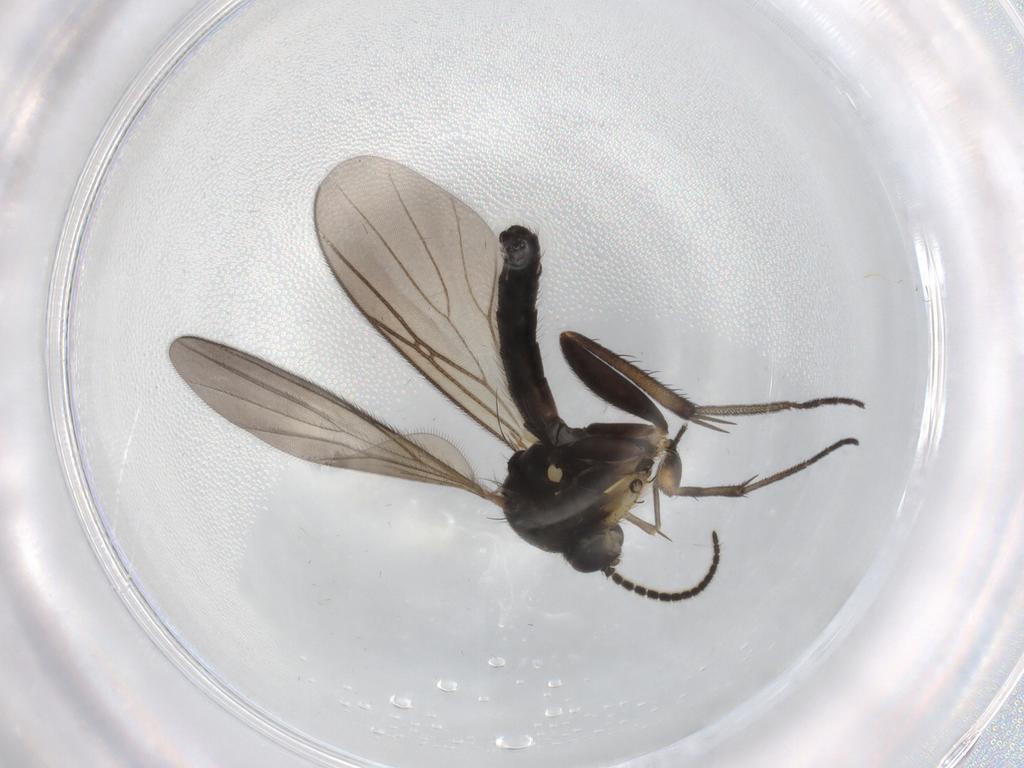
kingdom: Animalia
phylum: Arthropoda
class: Insecta
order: Diptera
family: Mycetophilidae
